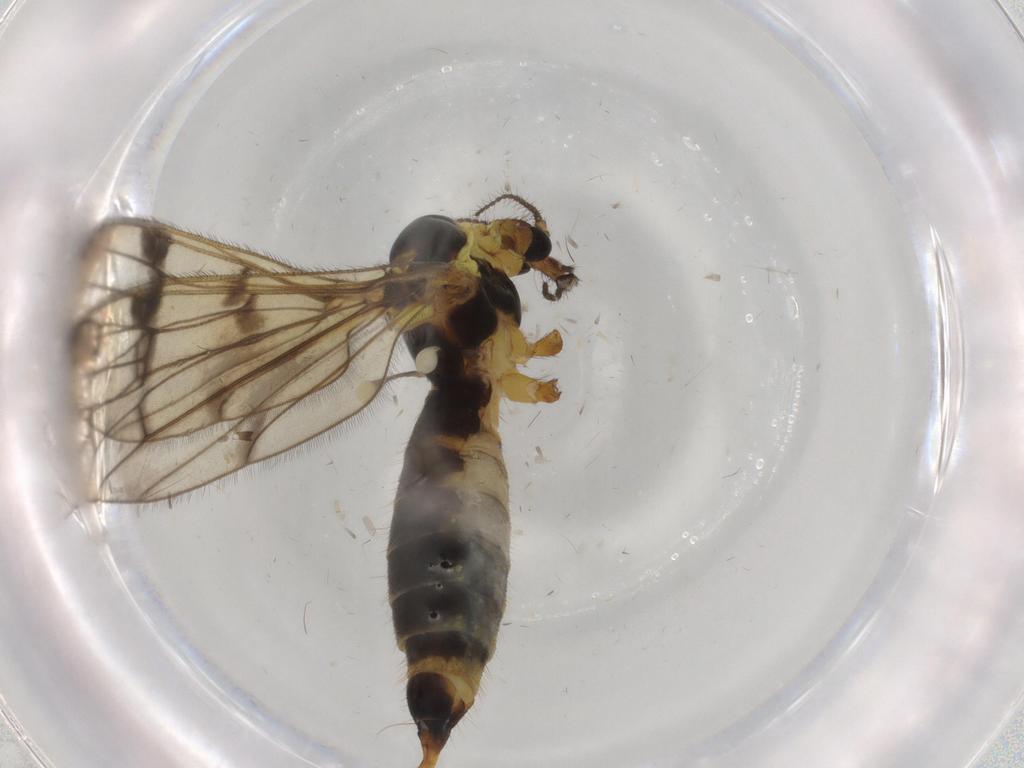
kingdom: Animalia
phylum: Arthropoda
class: Insecta
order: Diptera
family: Limoniidae
